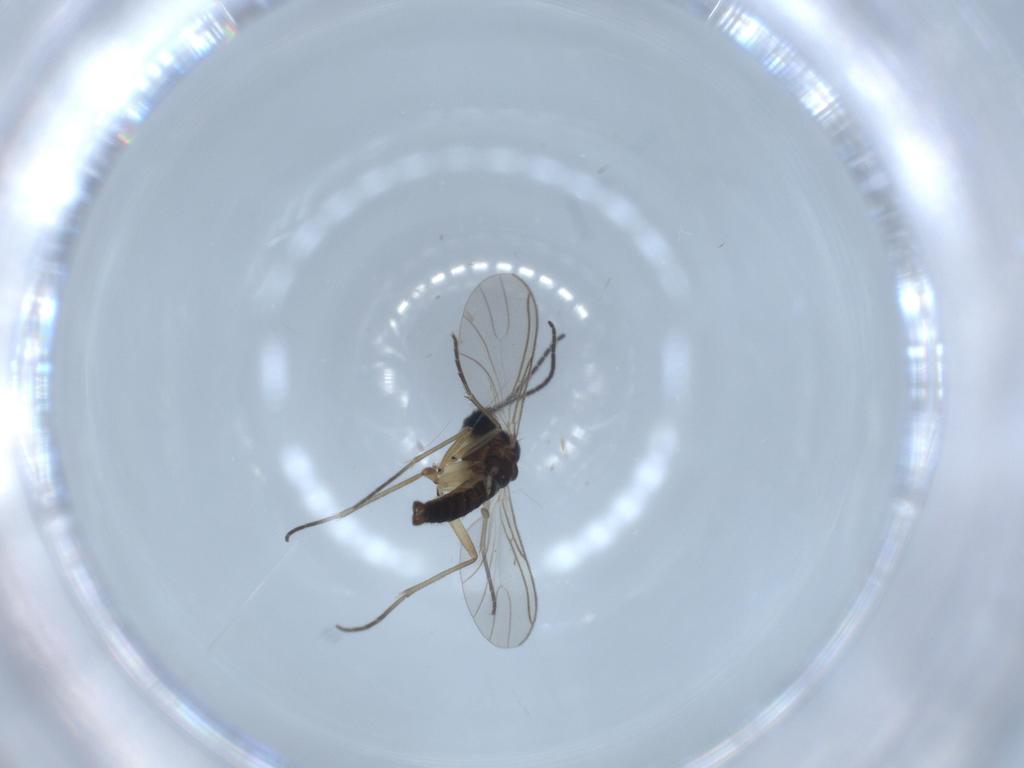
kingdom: Animalia
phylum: Arthropoda
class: Insecta
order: Diptera
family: Sciaridae
